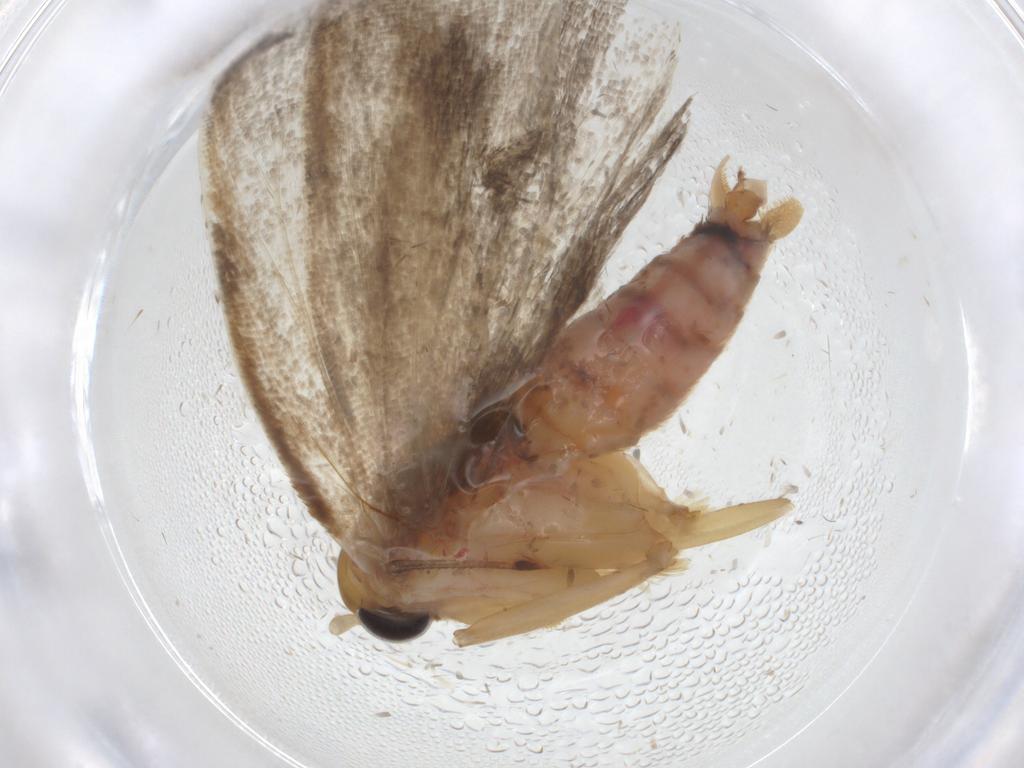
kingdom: Animalia
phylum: Arthropoda
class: Insecta
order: Lepidoptera
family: Depressariidae
